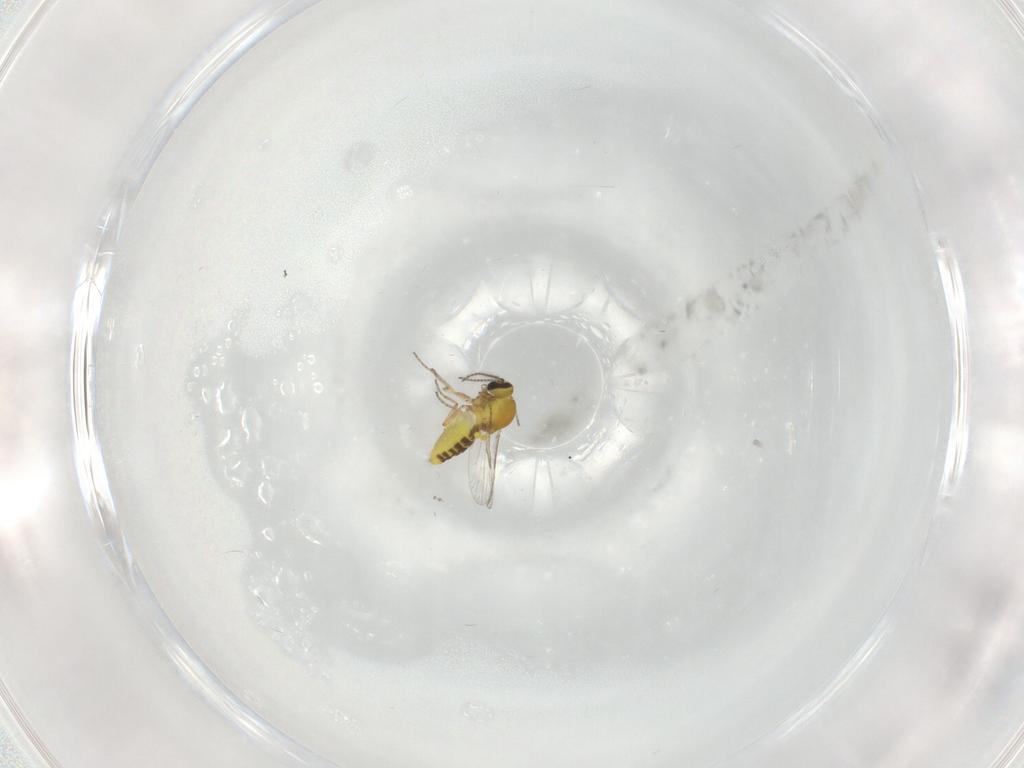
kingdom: Animalia
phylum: Arthropoda
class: Insecta
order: Diptera
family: Ceratopogonidae
